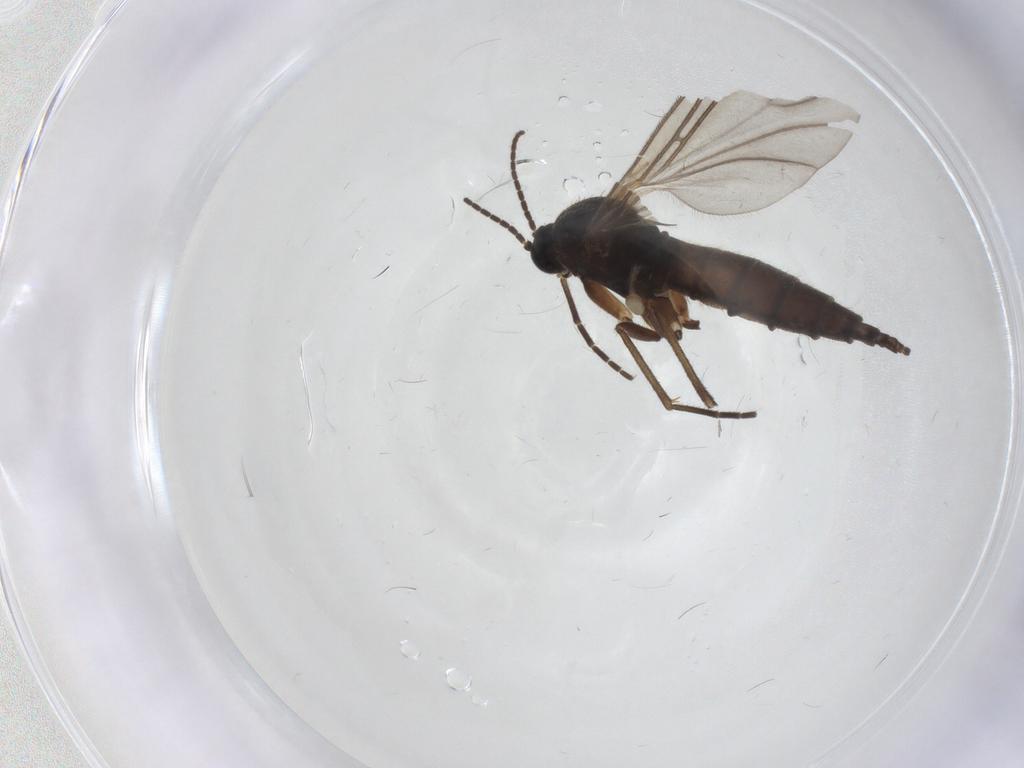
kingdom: Animalia
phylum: Arthropoda
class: Insecta
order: Diptera
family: Sciaridae
